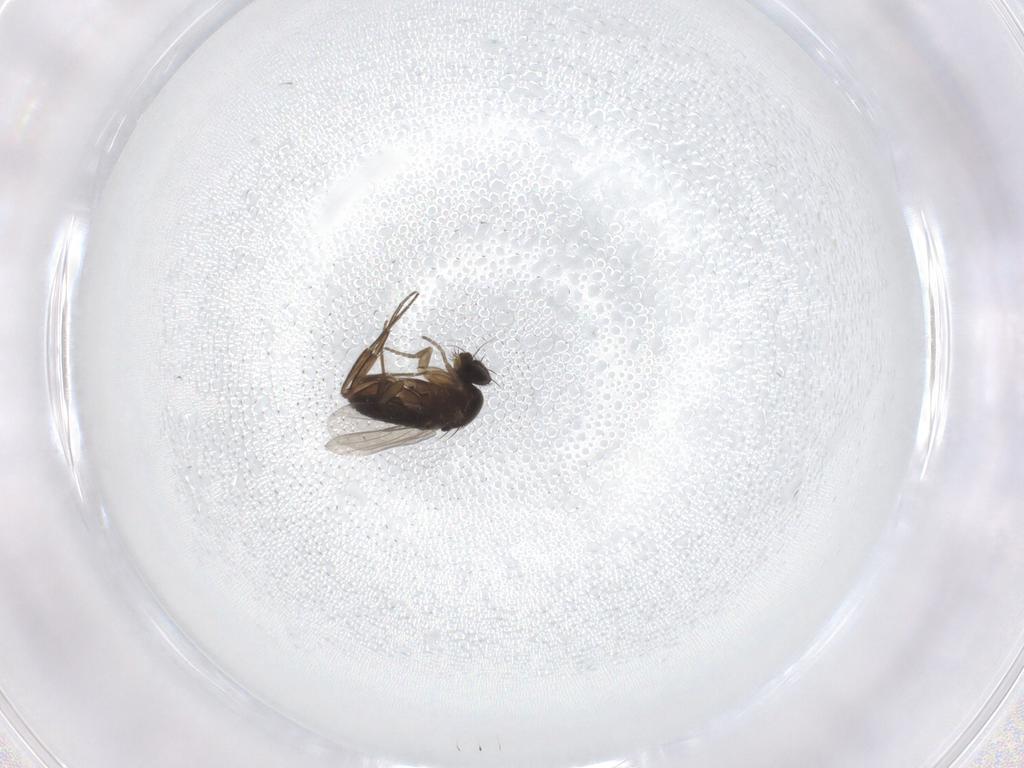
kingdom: Animalia
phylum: Arthropoda
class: Insecta
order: Diptera
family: Phoridae
